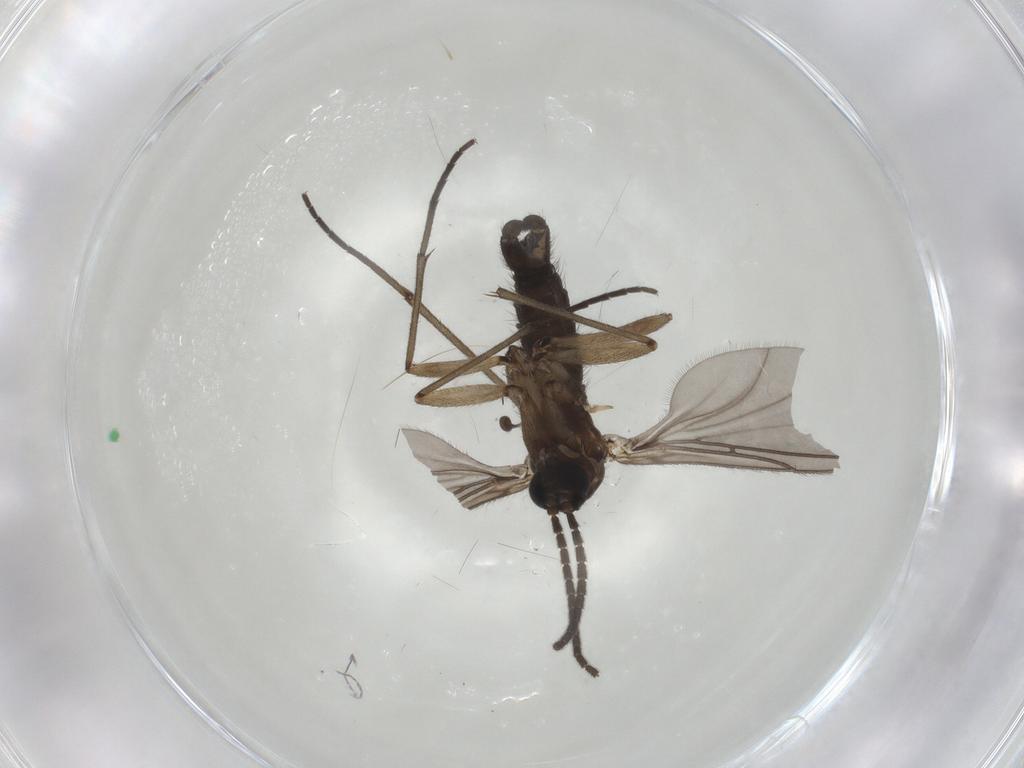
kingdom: Animalia
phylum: Arthropoda
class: Insecta
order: Diptera
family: Sciaridae
